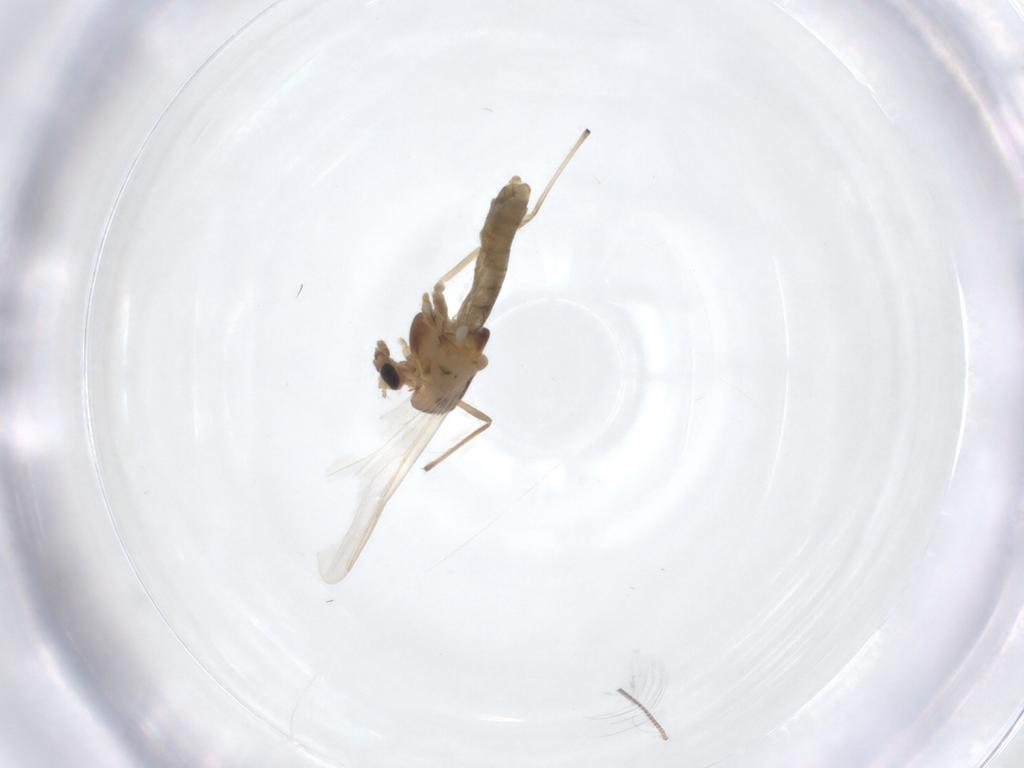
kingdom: Animalia
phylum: Arthropoda
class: Insecta
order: Diptera
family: Chironomidae
